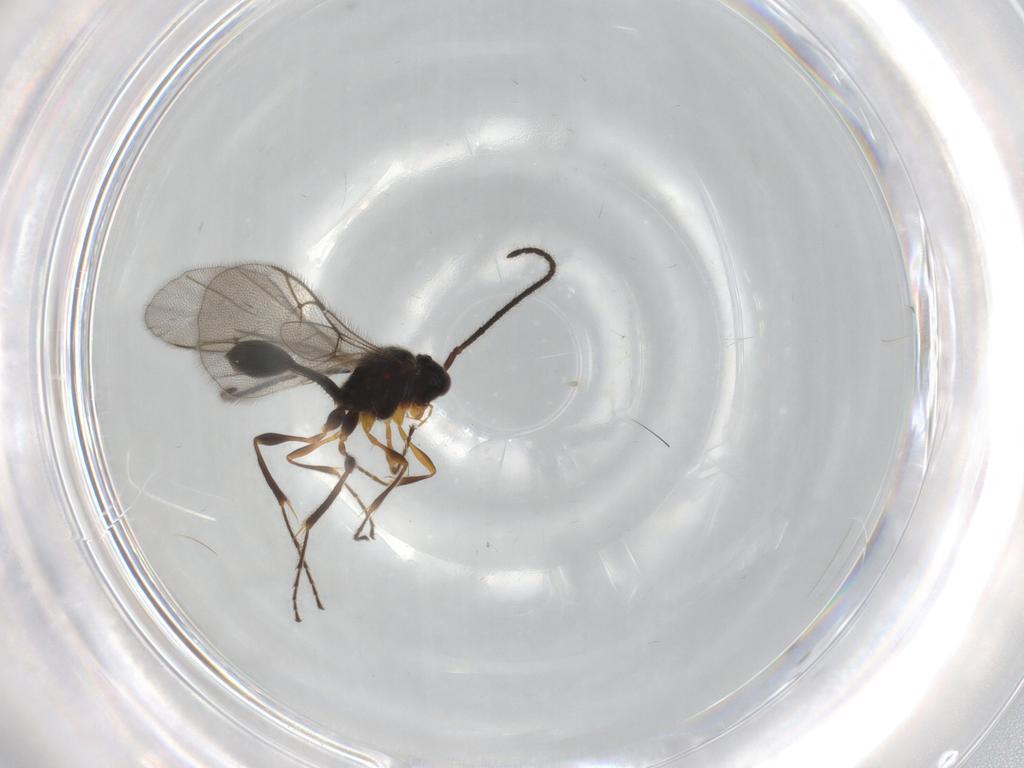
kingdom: Animalia
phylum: Arthropoda
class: Insecta
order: Hymenoptera
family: Diapriidae
